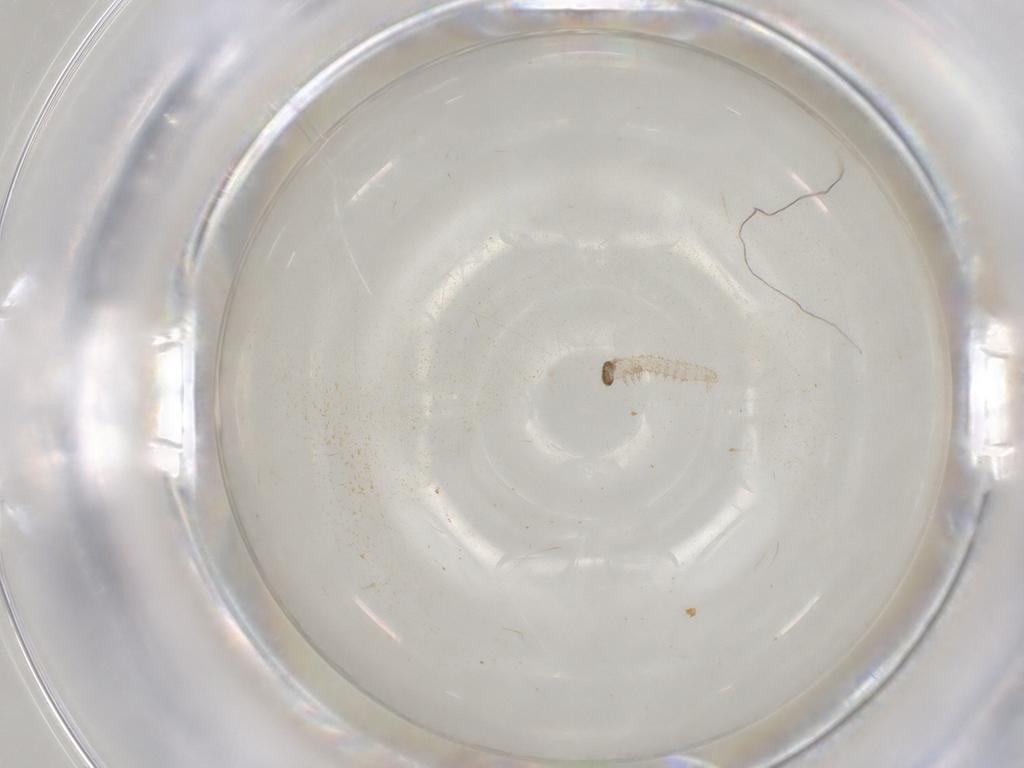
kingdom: Animalia
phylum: Arthropoda
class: Insecta
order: Lepidoptera
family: Crambidae
